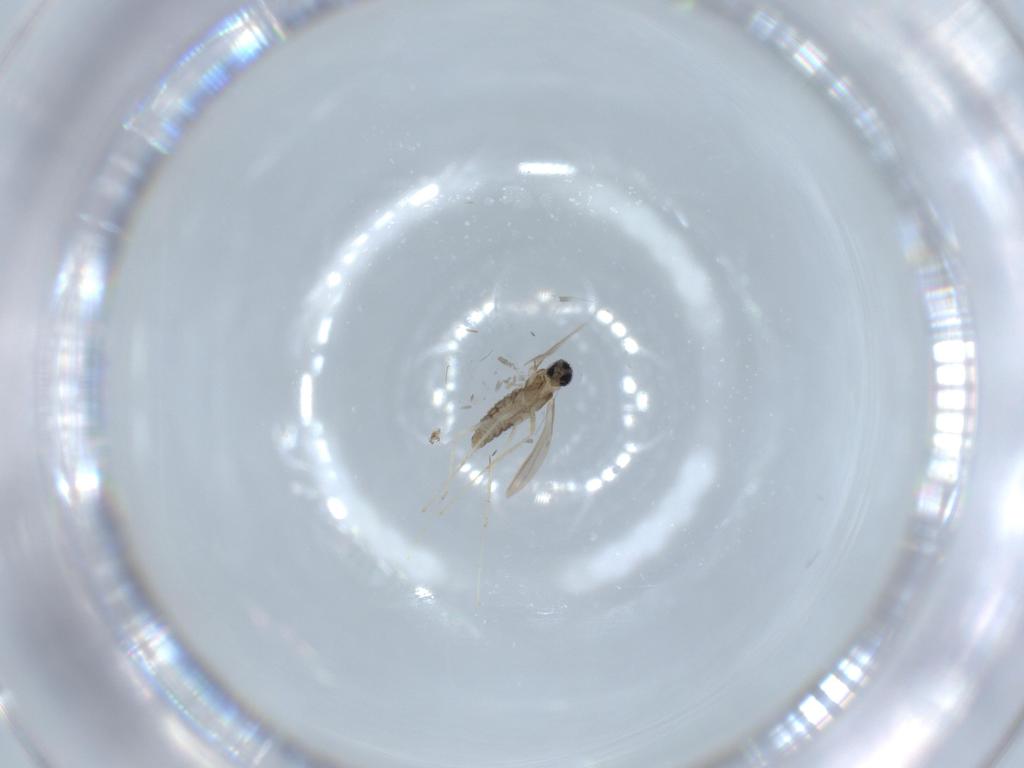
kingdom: Animalia
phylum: Arthropoda
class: Insecta
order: Diptera
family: Cecidomyiidae
